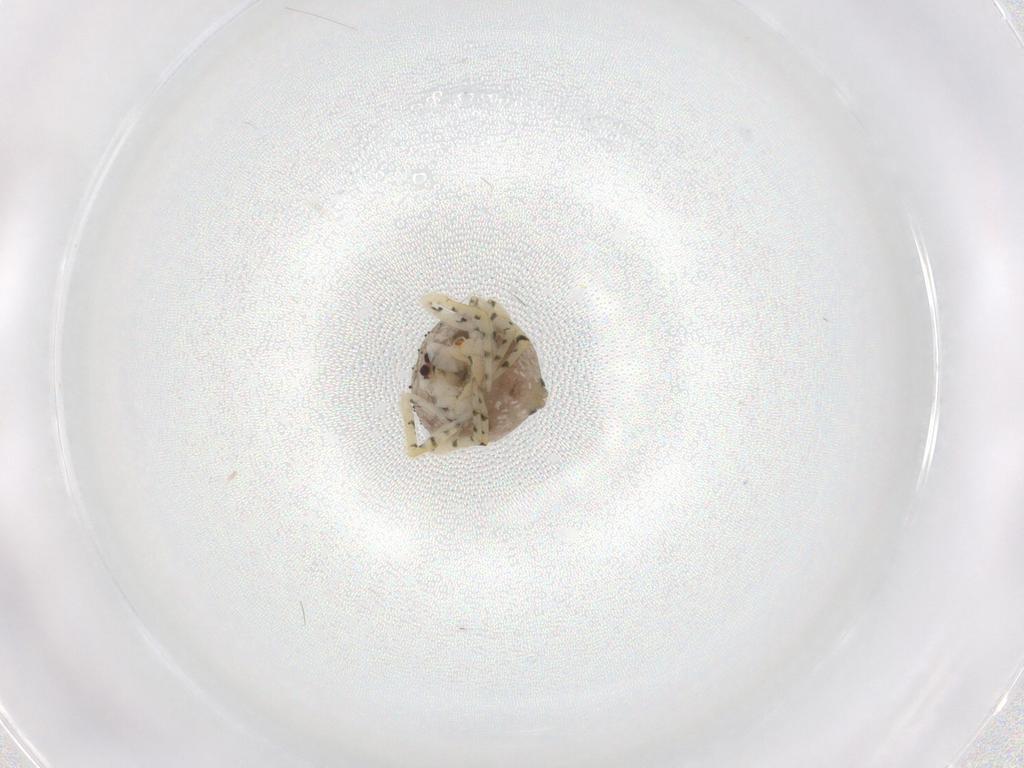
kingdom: Animalia
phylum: Arthropoda
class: Arachnida
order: Araneae
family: Theridiidae
